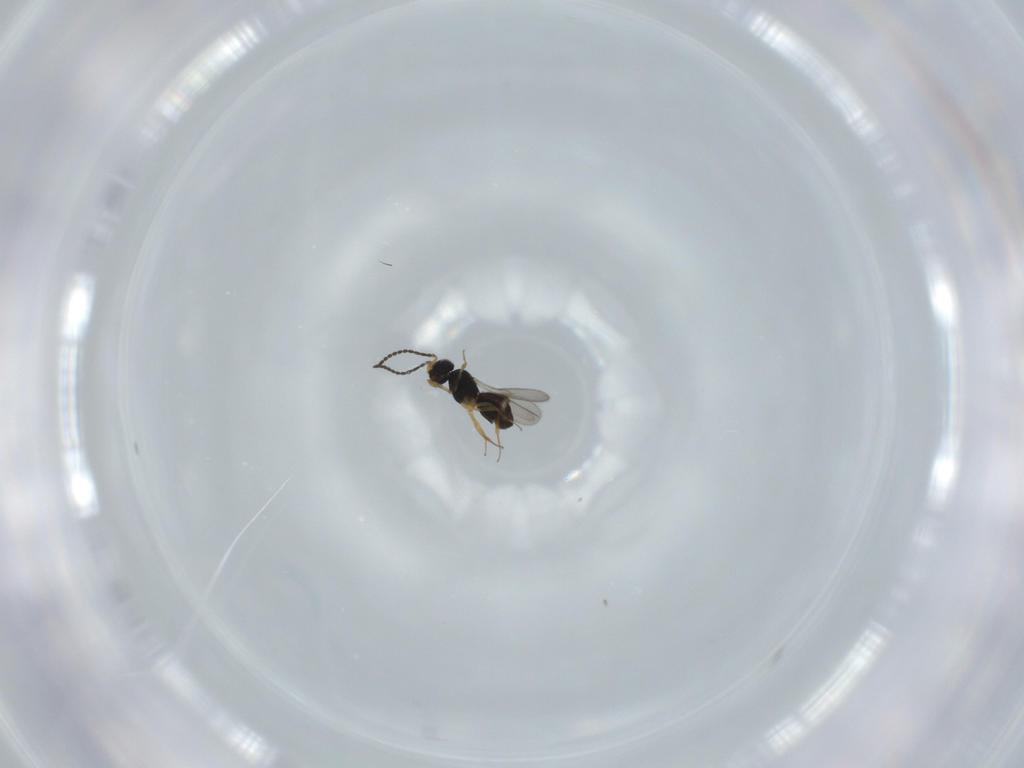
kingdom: Animalia
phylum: Arthropoda
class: Insecta
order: Hymenoptera
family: Scelionidae
